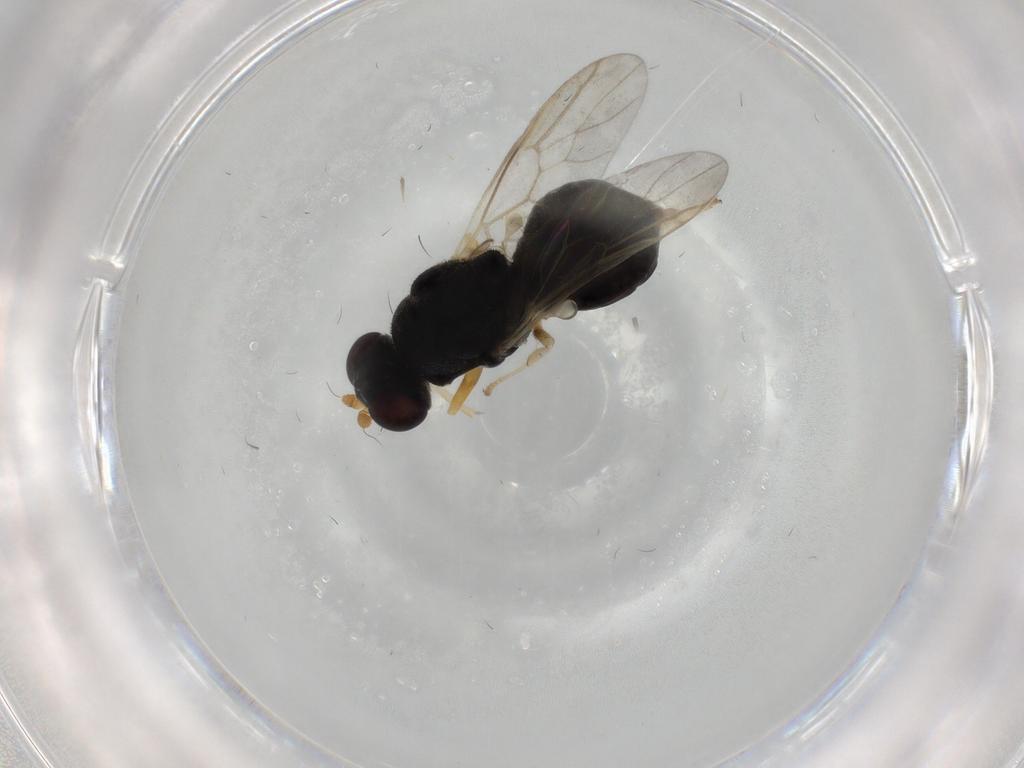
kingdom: Animalia
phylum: Arthropoda
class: Insecta
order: Diptera
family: Stratiomyidae
